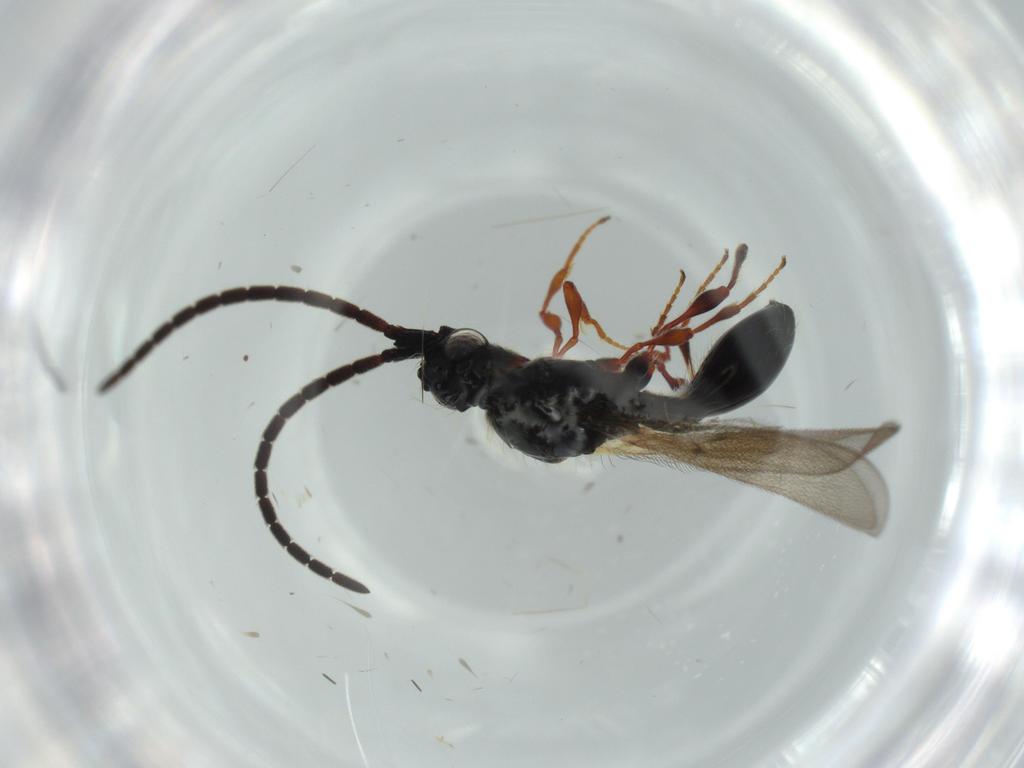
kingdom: Animalia
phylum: Arthropoda
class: Insecta
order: Hymenoptera
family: Diapriidae
